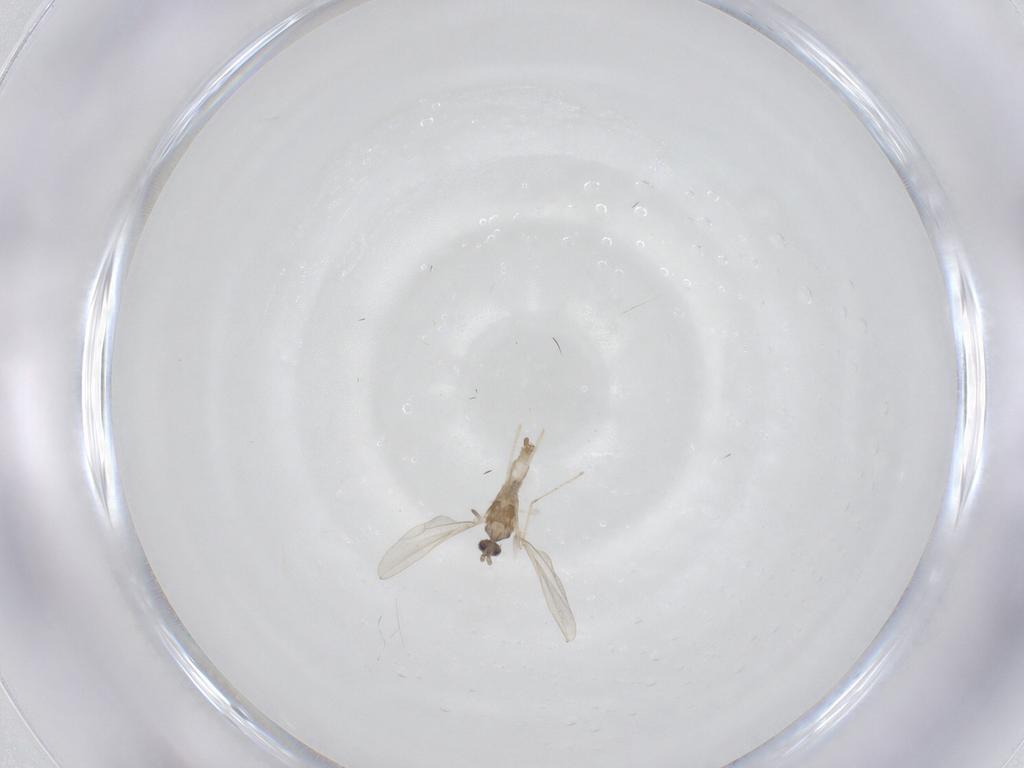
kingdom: Animalia
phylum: Arthropoda
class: Insecta
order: Diptera
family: Cecidomyiidae
